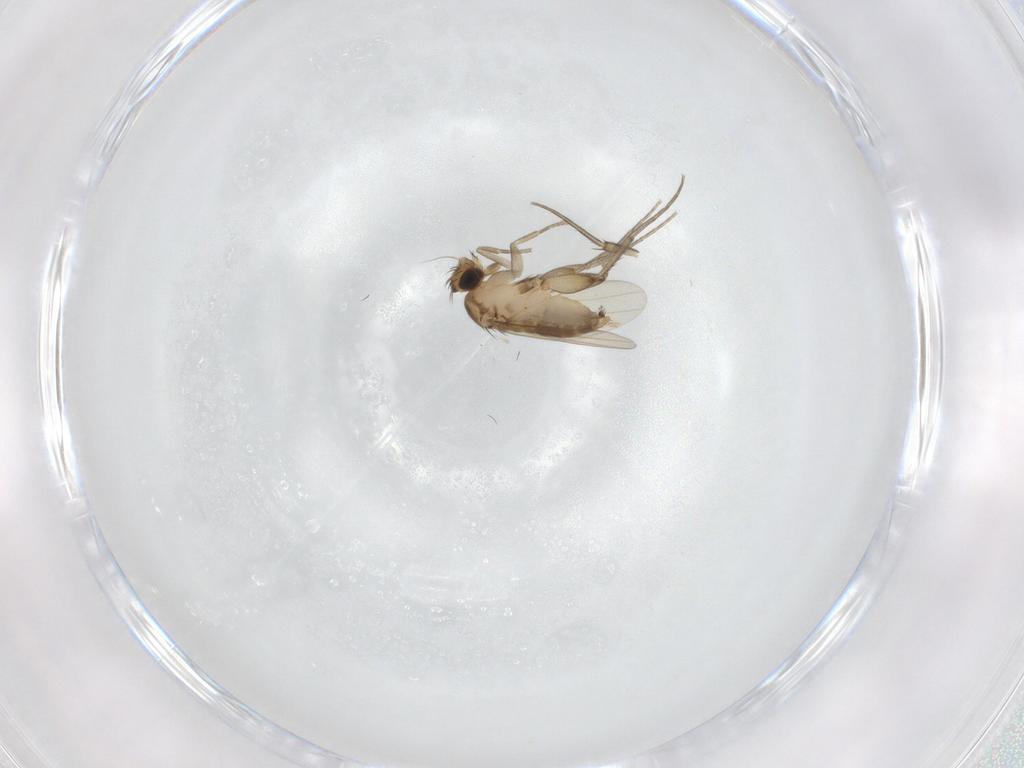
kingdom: Animalia
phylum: Arthropoda
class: Insecta
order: Diptera
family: Phoridae
